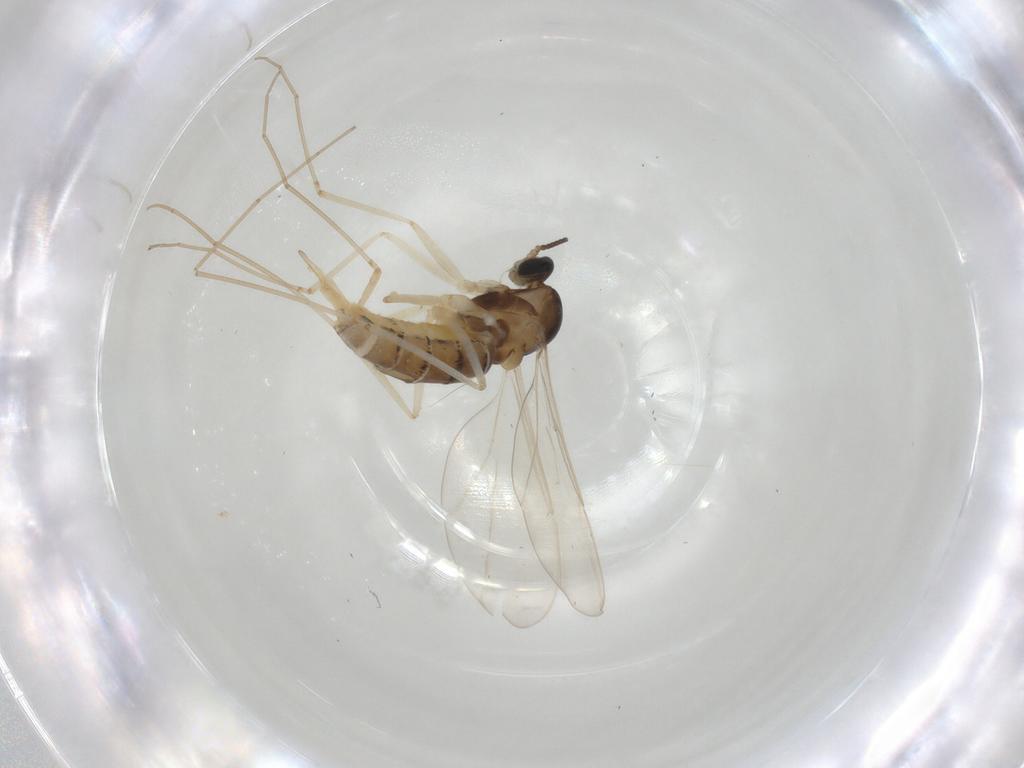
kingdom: Animalia
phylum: Arthropoda
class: Insecta
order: Diptera
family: Cecidomyiidae
